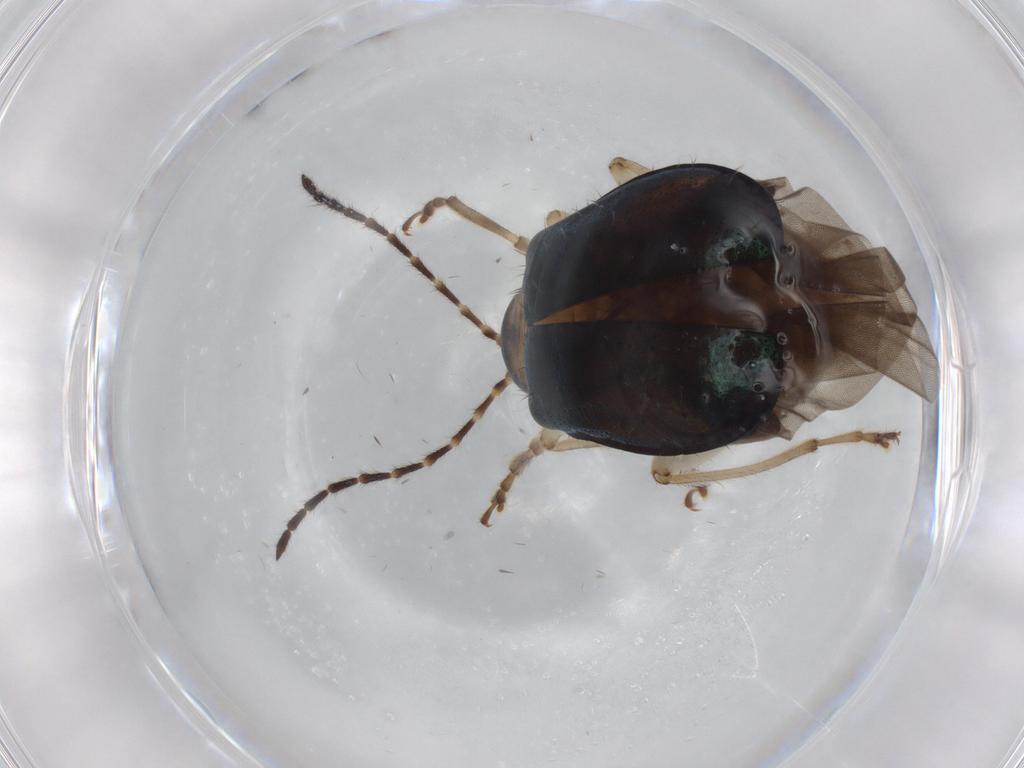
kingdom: Animalia
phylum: Arthropoda
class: Insecta
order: Coleoptera
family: Chrysomelidae
